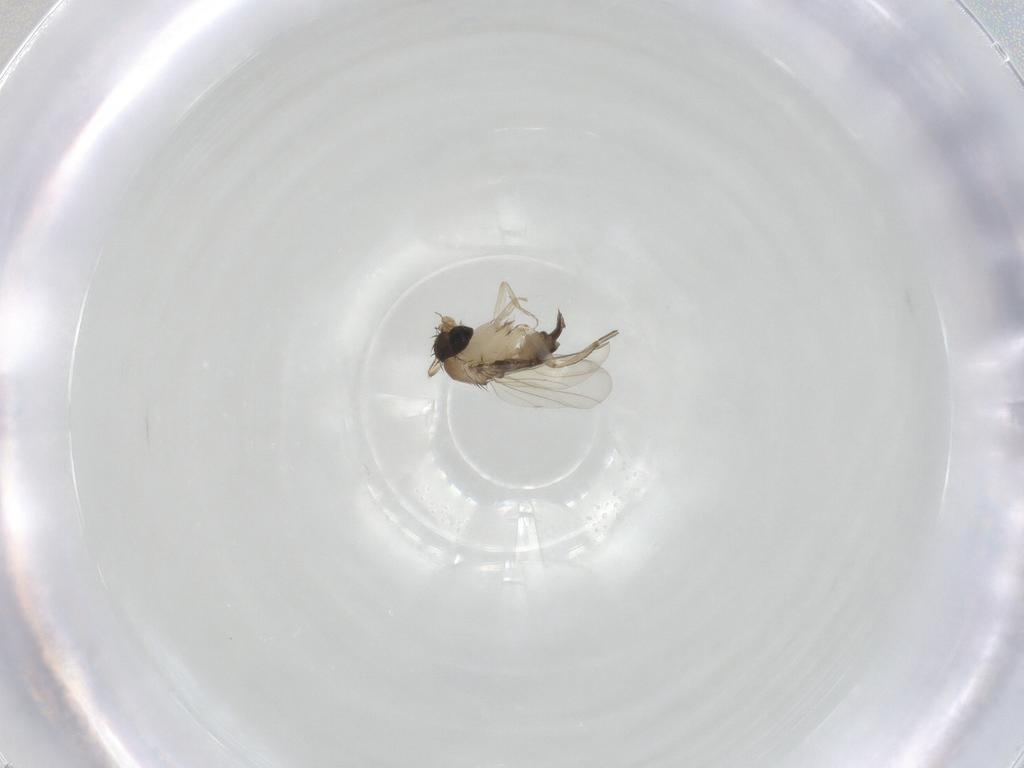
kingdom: Animalia
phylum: Arthropoda
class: Insecta
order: Diptera
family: Phoridae
